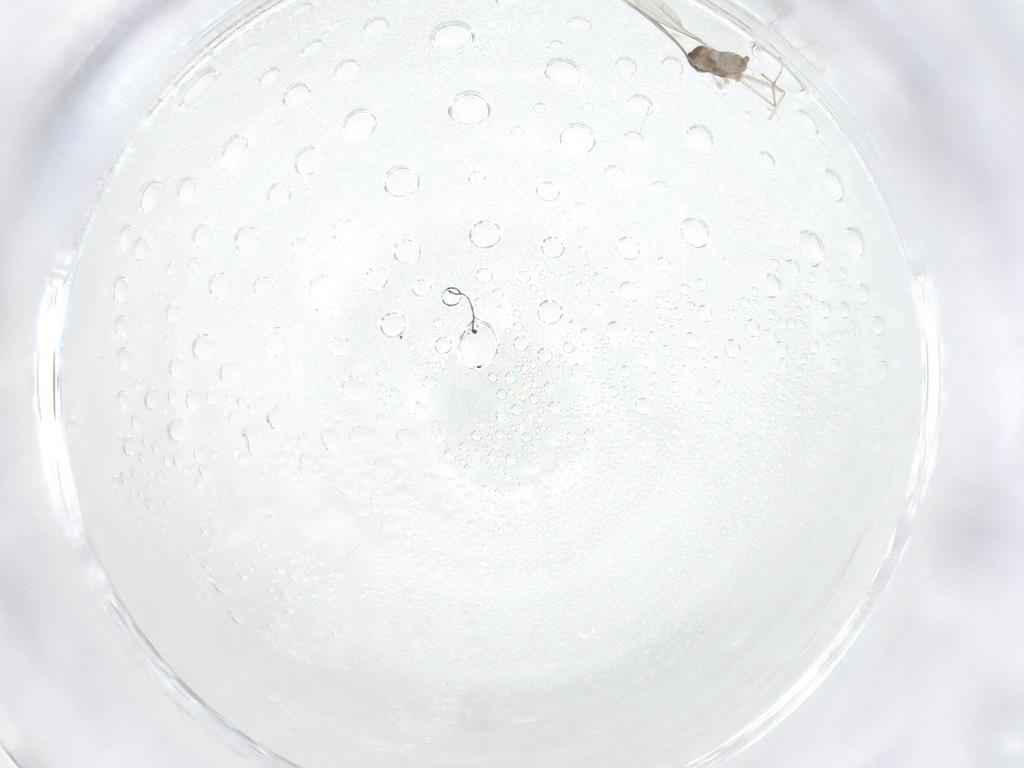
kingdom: Animalia
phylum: Arthropoda
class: Insecta
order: Diptera
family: Cecidomyiidae
